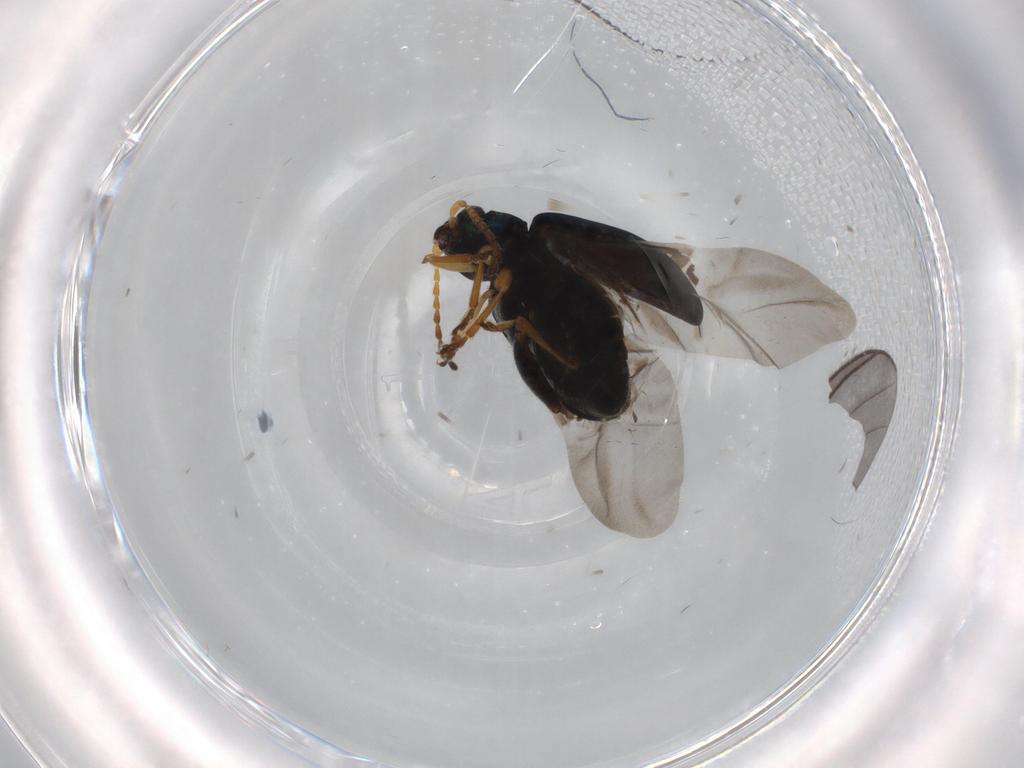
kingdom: Animalia
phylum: Arthropoda
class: Insecta
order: Coleoptera
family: Chrysomelidae
